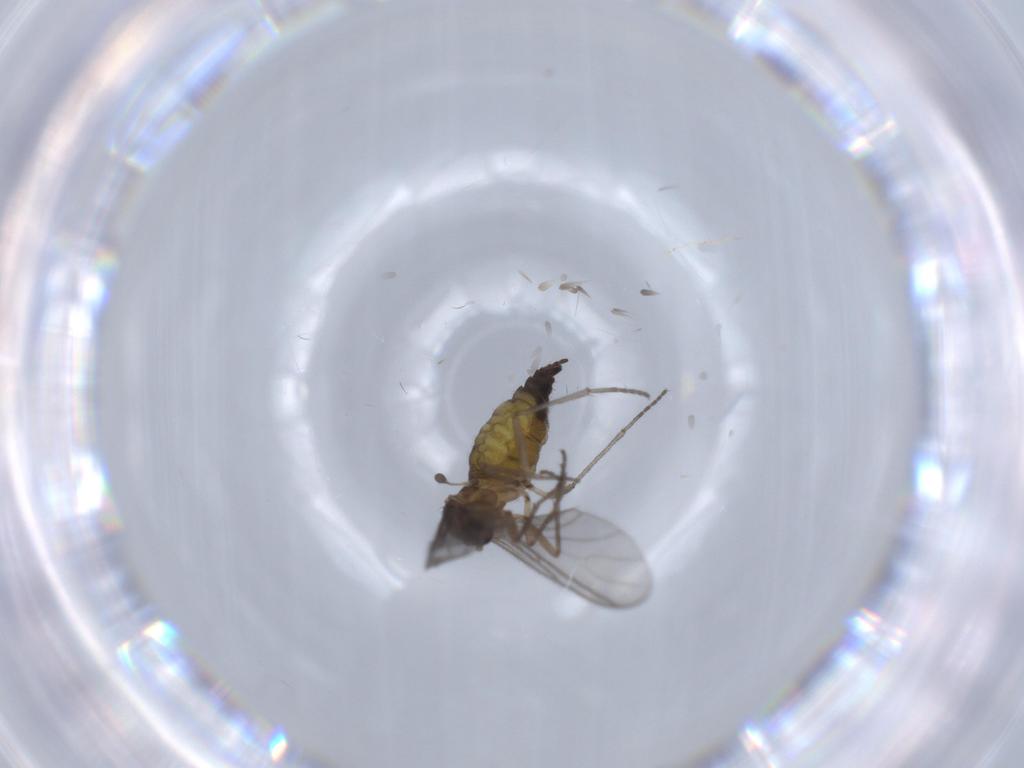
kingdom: Animalia
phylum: Arthropoda
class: Insecta
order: Diptera
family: Sciaridae
